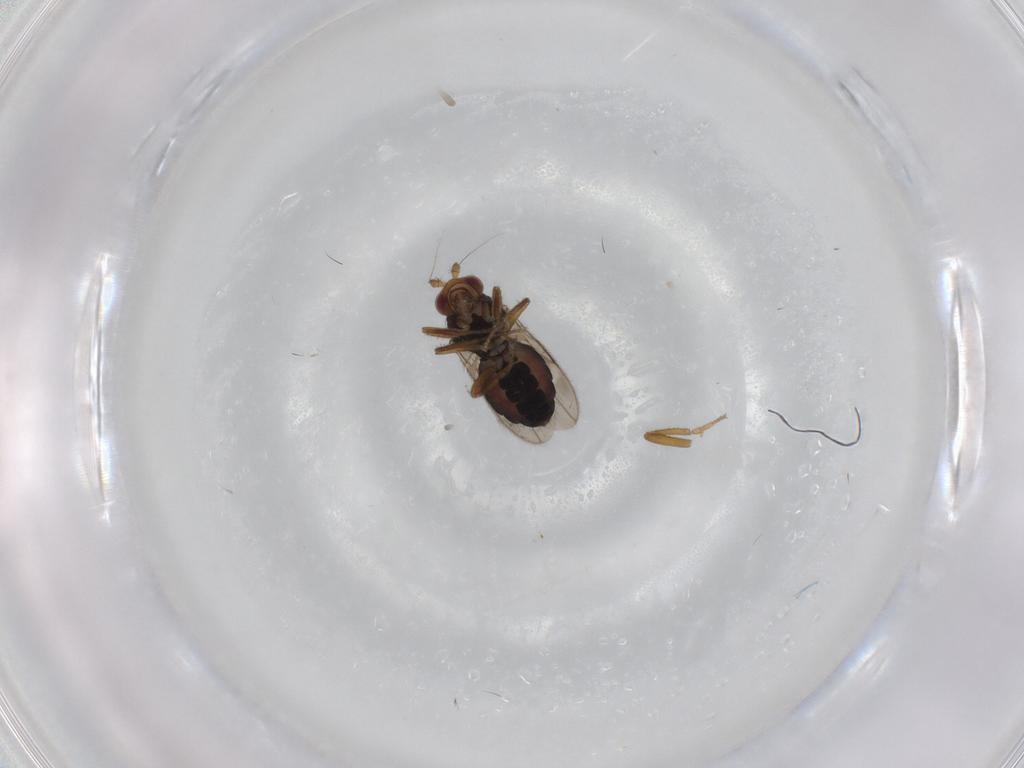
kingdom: Animalia
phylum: Arthropoda
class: Insecta
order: Diptera
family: Sphaeroceridae
